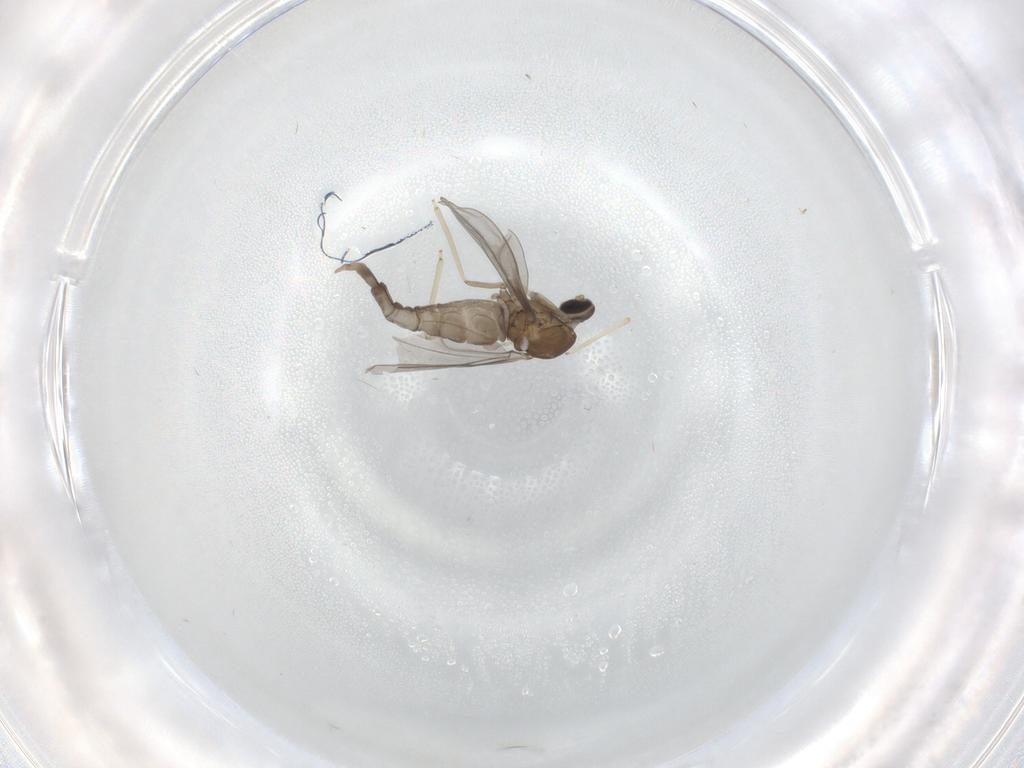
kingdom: Animalia
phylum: Arthropoda
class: Insecta
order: Diptera
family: Cecidomyiidae
